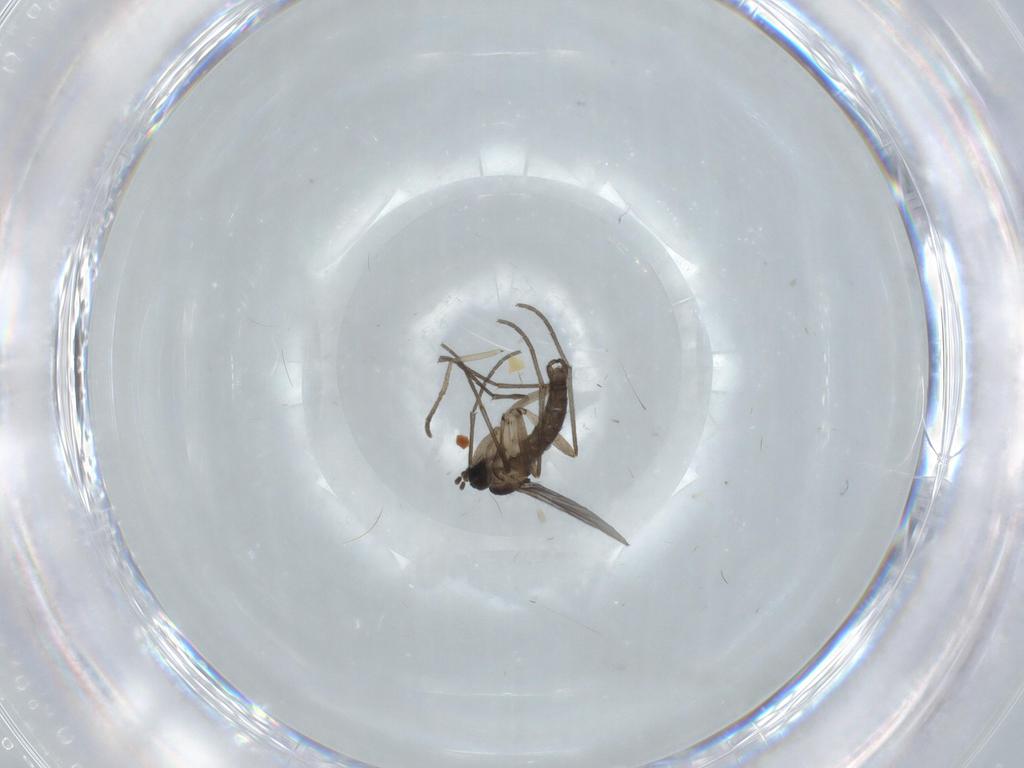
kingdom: Animalia
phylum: Arthropoda
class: Insecta
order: Diptera
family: Sciaridae
